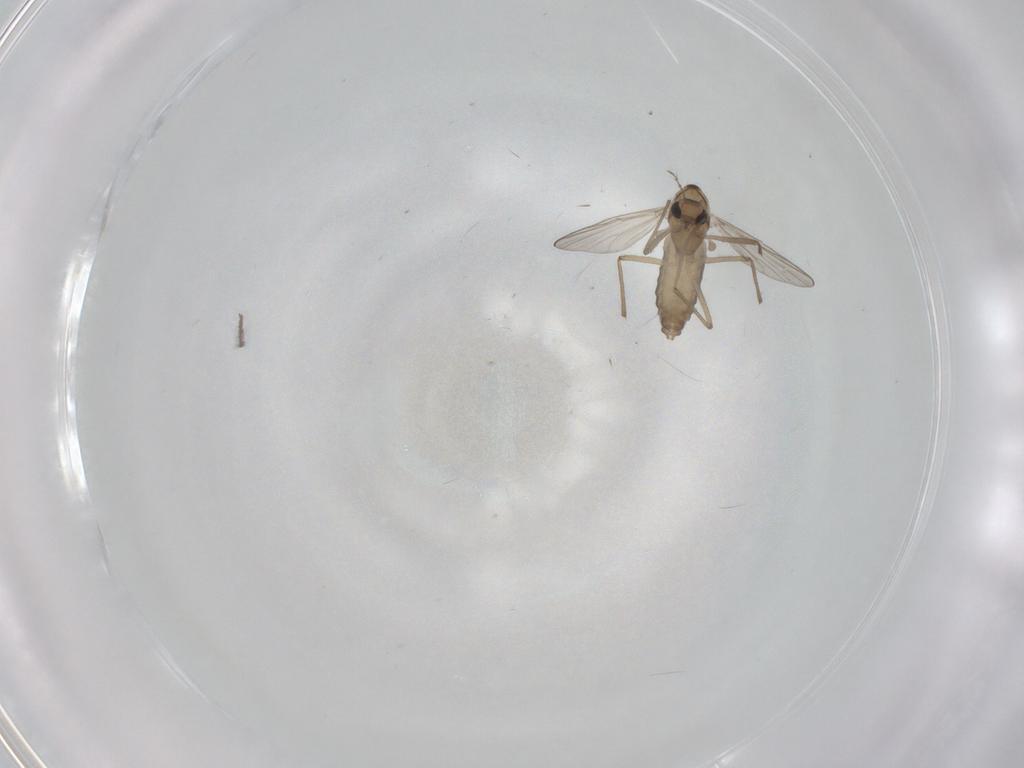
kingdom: Animalia
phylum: Arthropoda
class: Insecta
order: Diptera
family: Chironomidae
